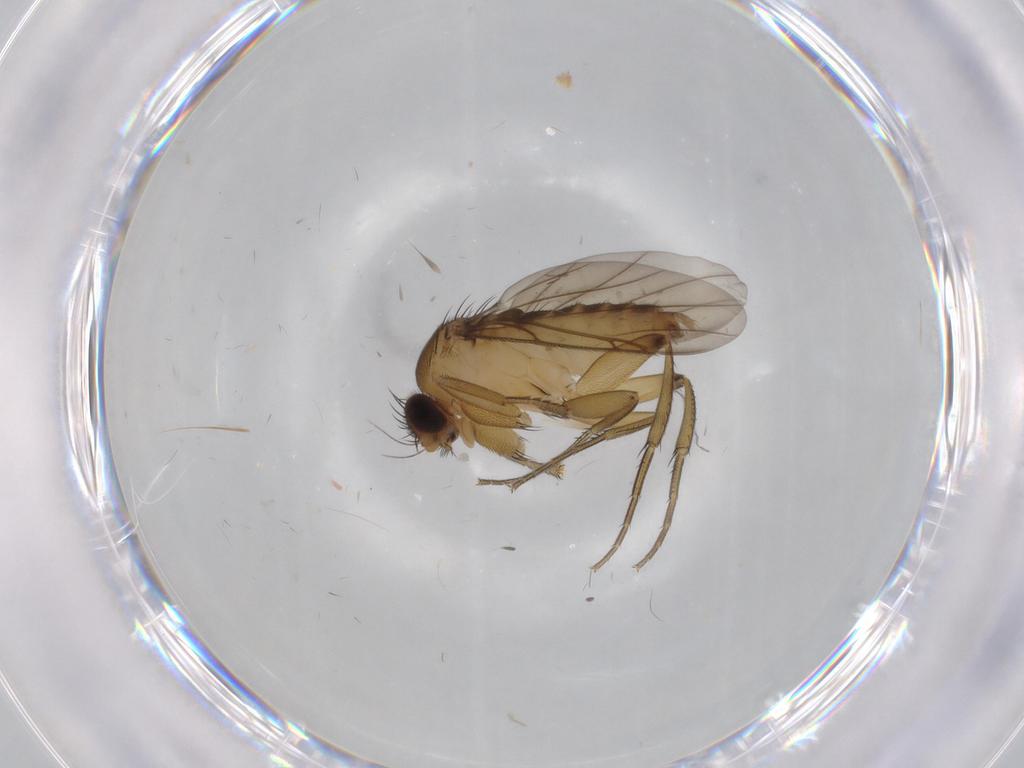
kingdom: Animalia
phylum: Arthropoda
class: Insecta
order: Diptera
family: Phoridae
